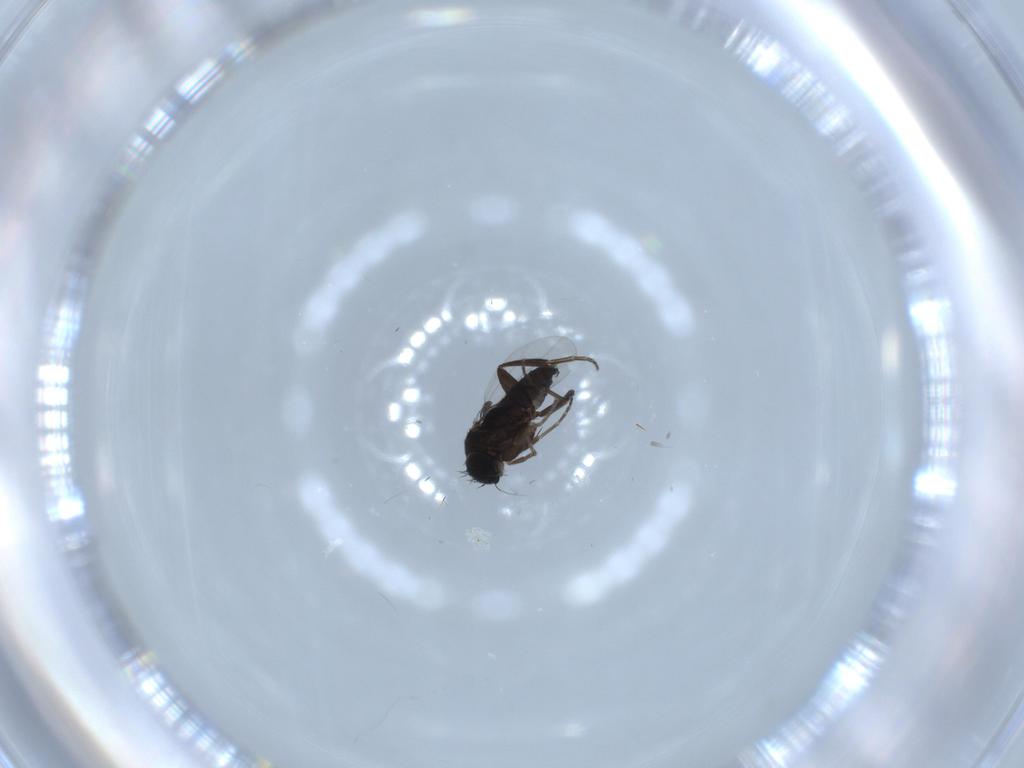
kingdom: Animalia
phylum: Arthropoda
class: Insecta
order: Diptera
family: Phoridae
